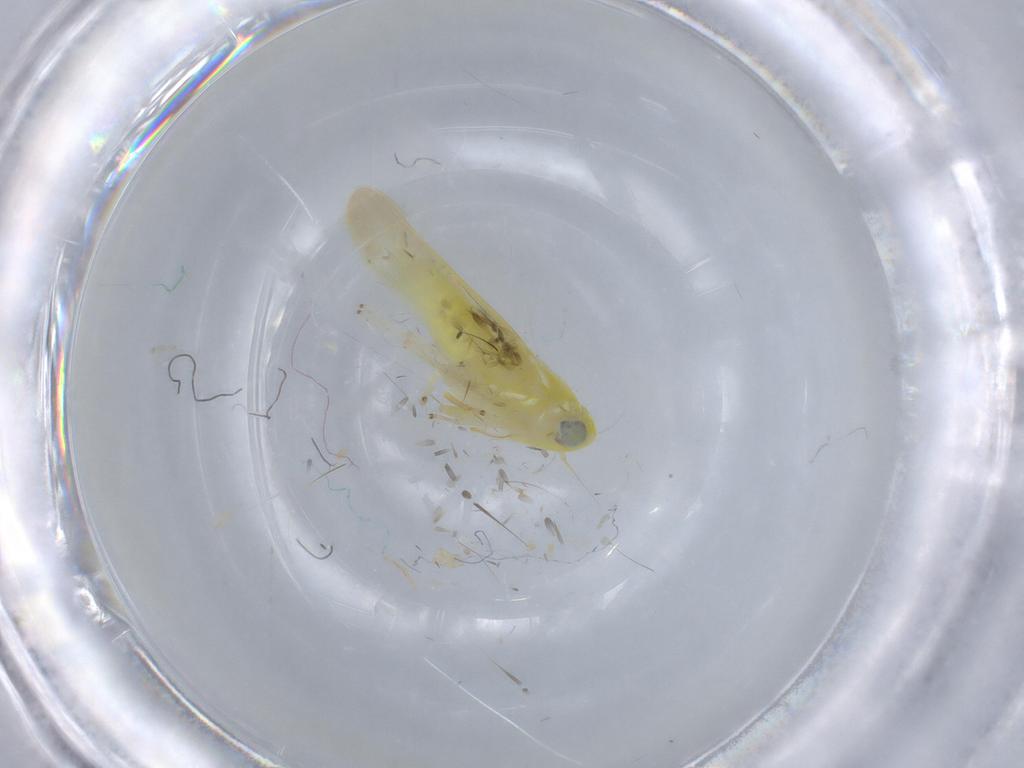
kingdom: Animalia
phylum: Arthropoda
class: Insecta
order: Hemiptera
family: Cicadellidae
